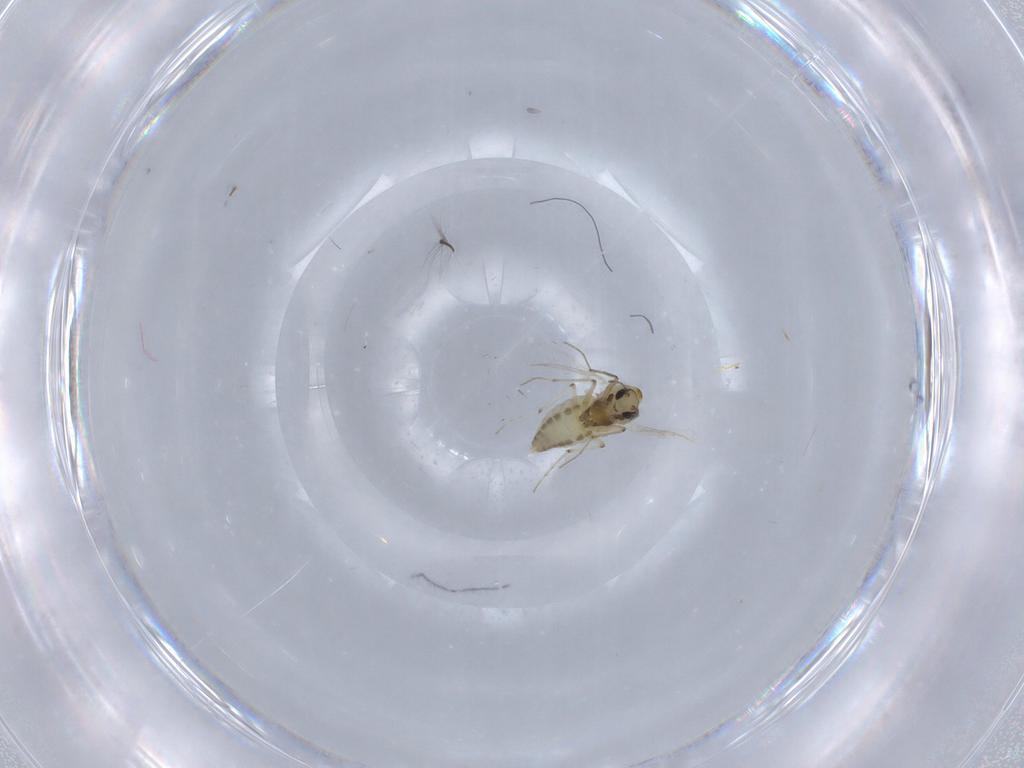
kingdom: Animalia
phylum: Arthropoda
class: Insecta
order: Diptera
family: Chironomidae
